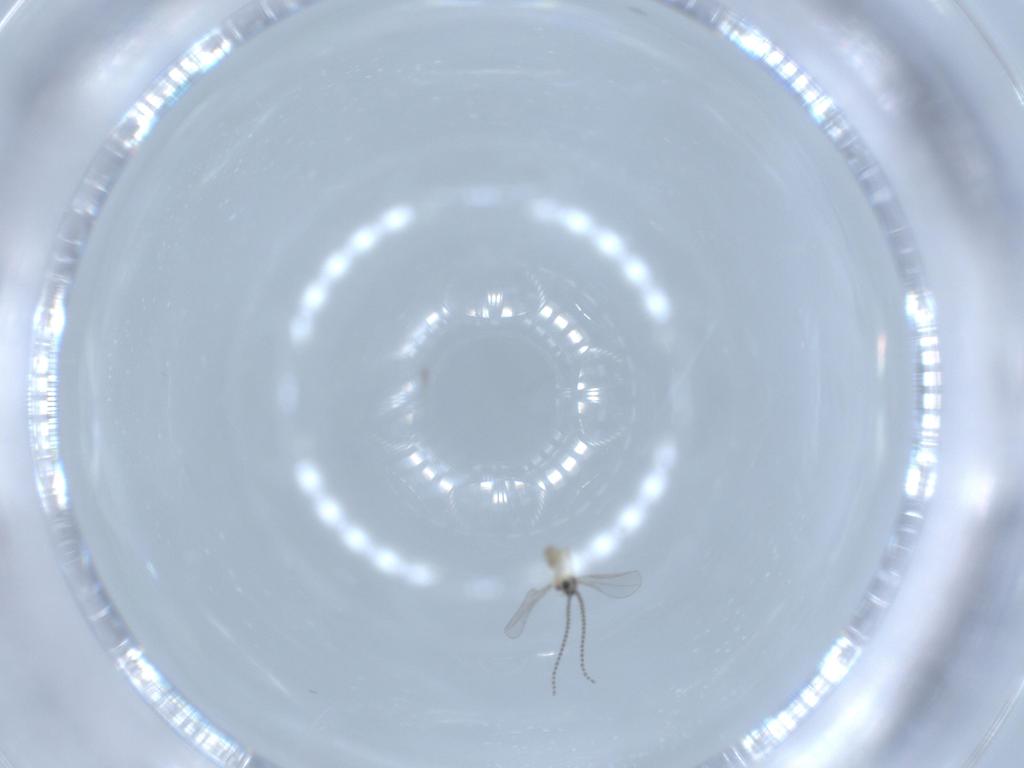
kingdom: Animalia
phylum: Arthropoda
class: Insecta
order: Diptera
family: Cecidomyiidae
